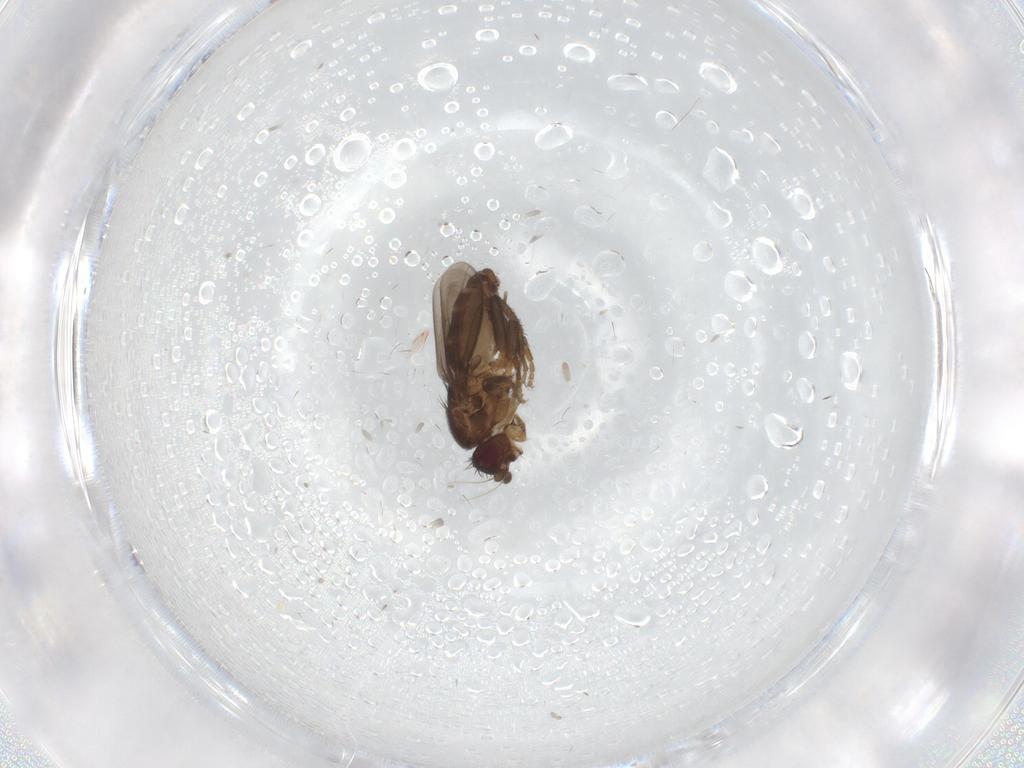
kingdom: Animalia
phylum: Arthropoda
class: Insecta
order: Diptera
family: Sphaeroceridae
